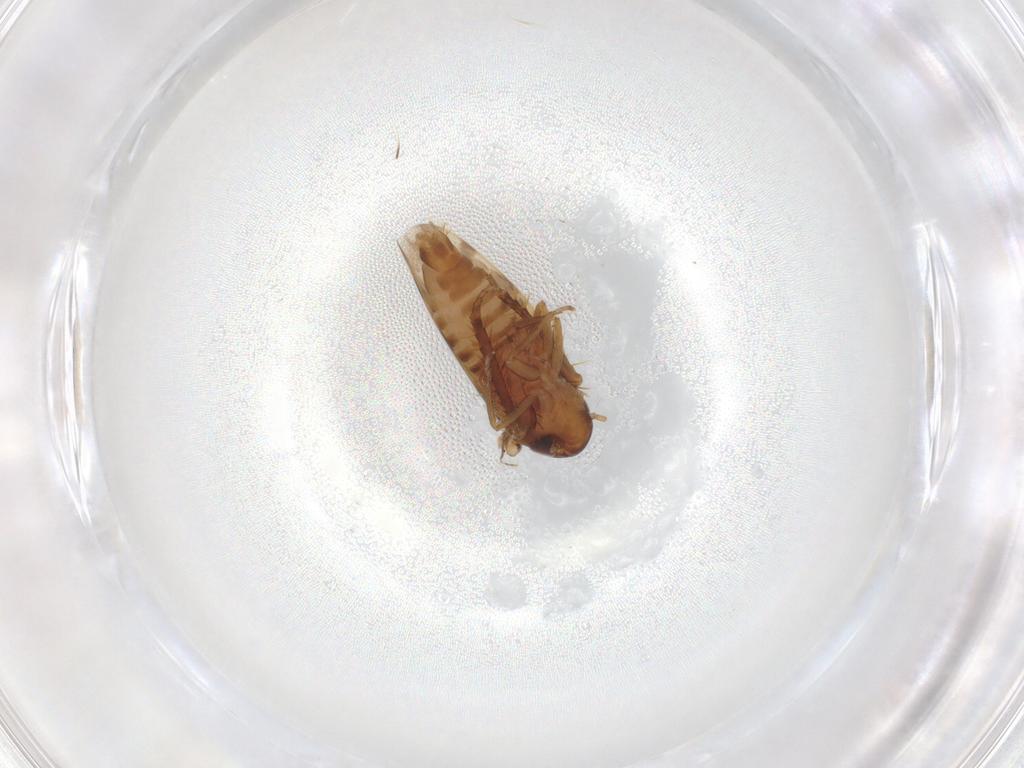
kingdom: Animalia
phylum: Arthropoda
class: Insecta
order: Hemiptera
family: Cicadellidae
